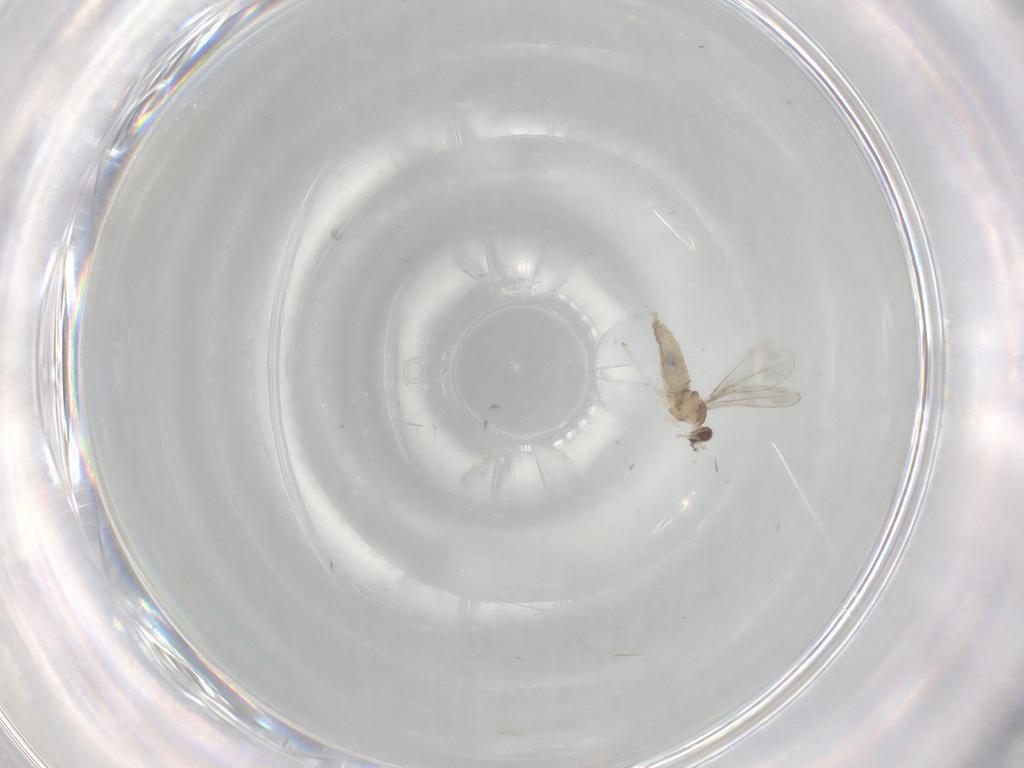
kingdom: Animalia
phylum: Arthropoda
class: Insecta
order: Diptera
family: Cecidomyiidae
